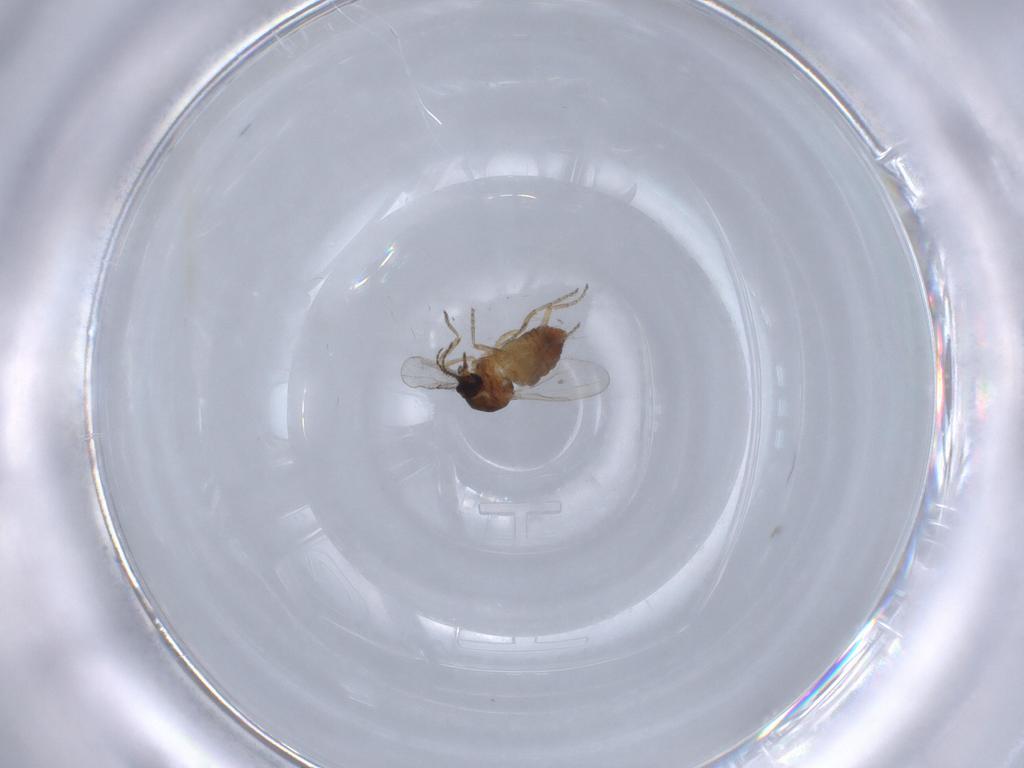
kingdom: Animalia
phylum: Arthropoda
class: Insecta
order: Diptera
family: Ceratopogonidae
